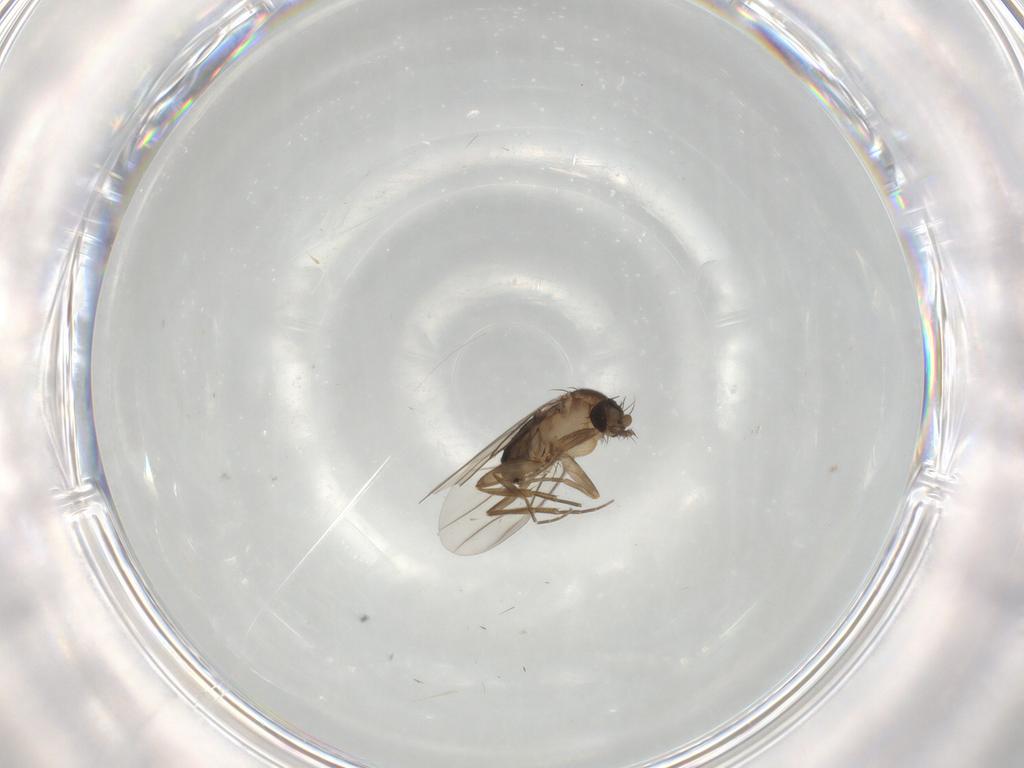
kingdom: Animalia
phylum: Arthropoda
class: Insecta
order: Diptera
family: Phoridae
